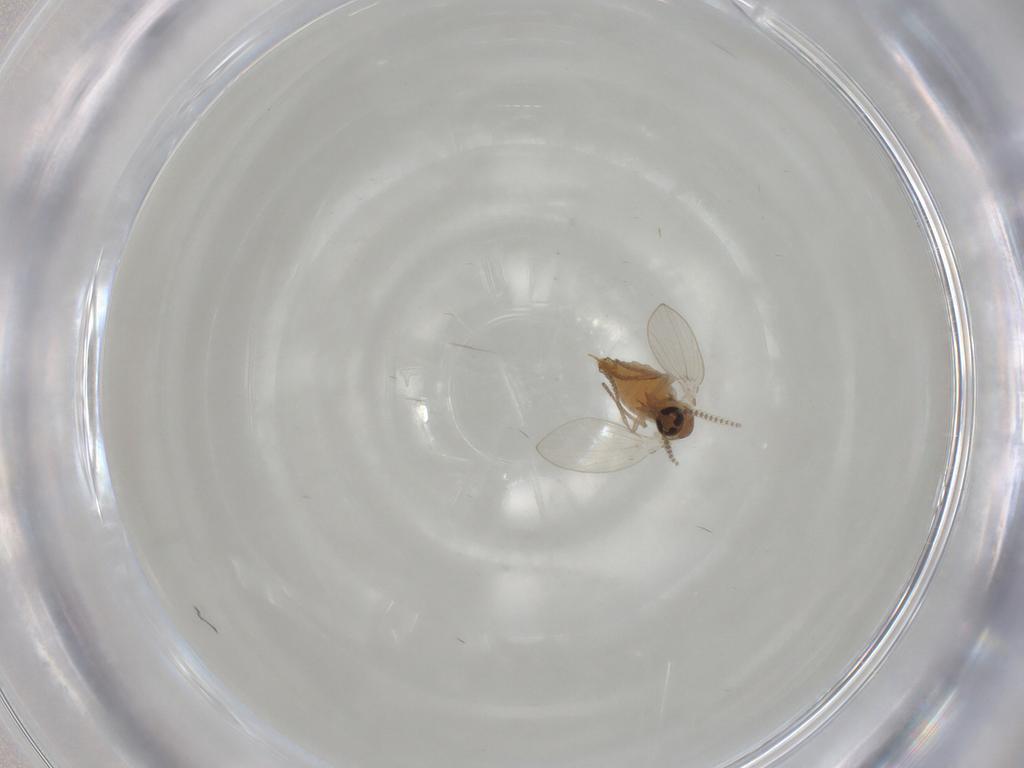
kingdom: Animalia
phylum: Arthropoda
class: Insecta
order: Diptera
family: Psychodidae
